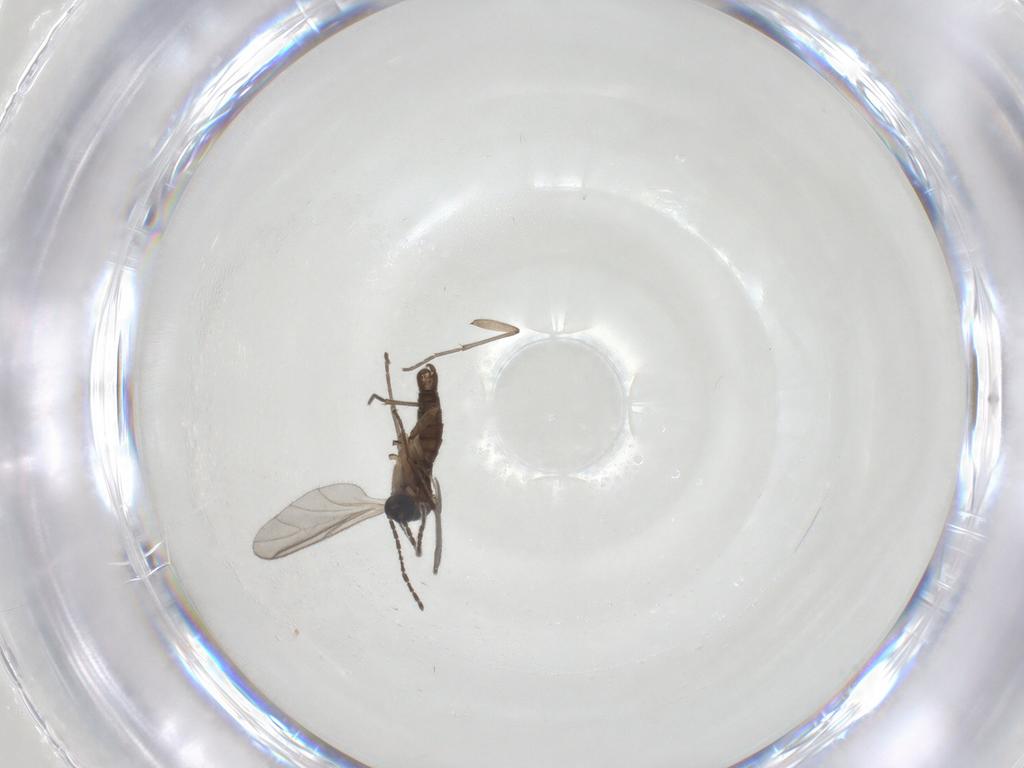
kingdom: Animalia
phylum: Arthropoda
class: Insecta
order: Diptera
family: Sciaridae
